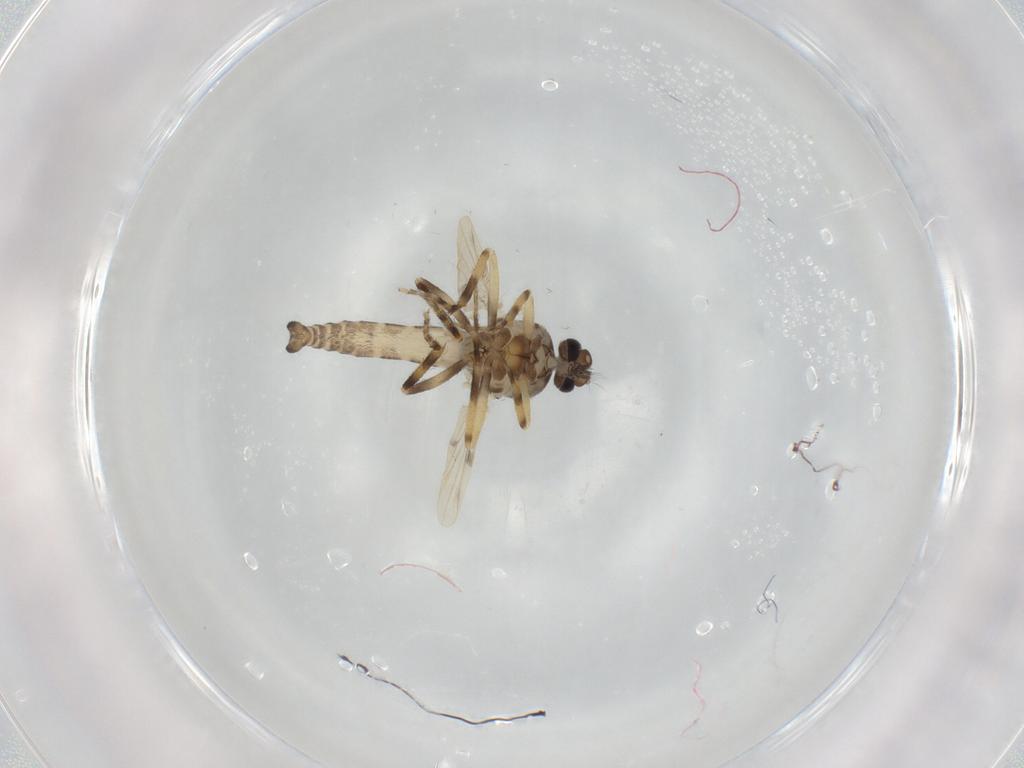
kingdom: Animalia
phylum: Arthropoda
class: Insecta
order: Diptera
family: Ceratopogonidae
